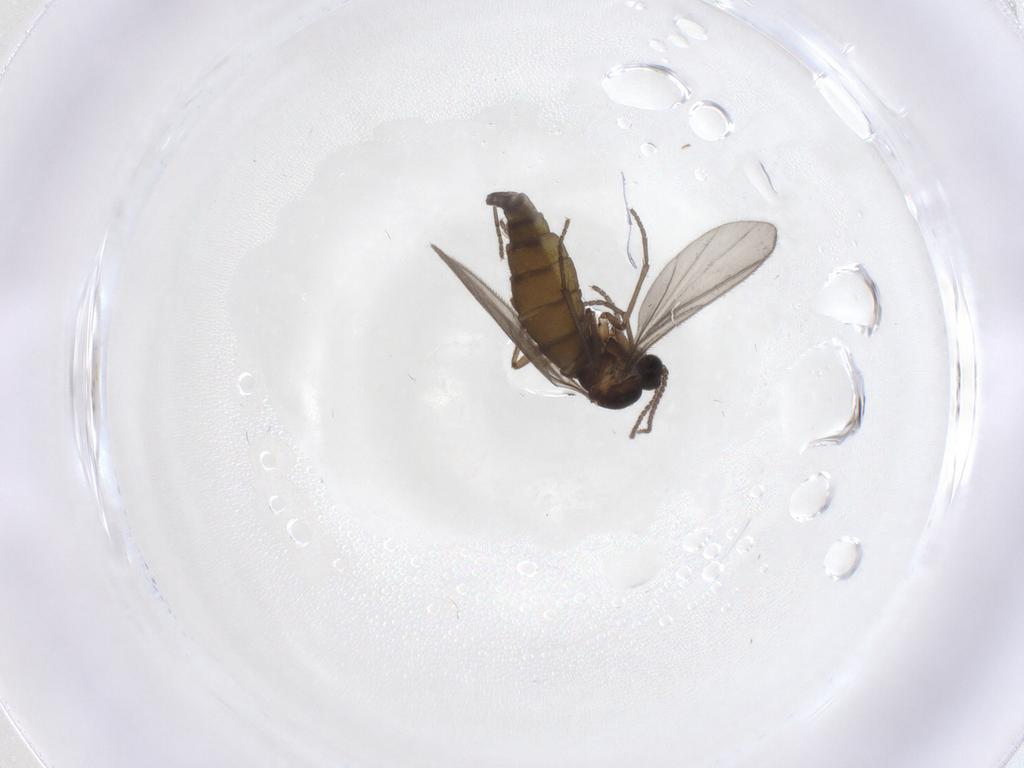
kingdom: Animalia
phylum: Arthropoda
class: Insecta
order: Diptera
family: Sciaridae
